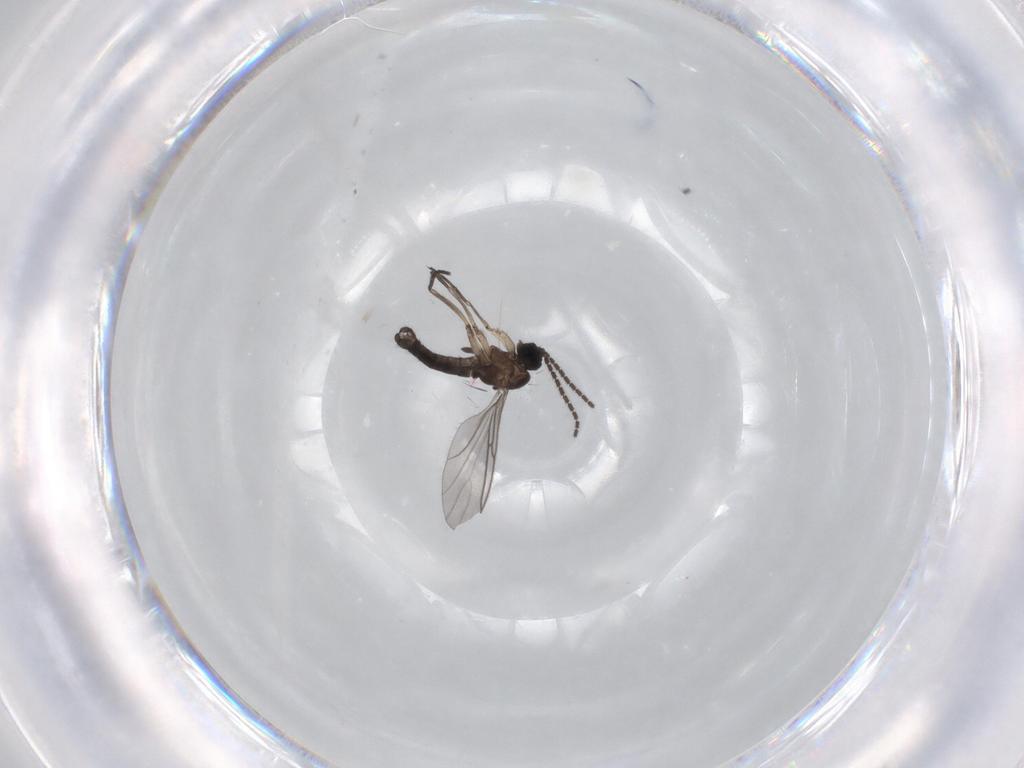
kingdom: Animalia
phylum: Arthropoda
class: Insecta
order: Diptera
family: Sciaridae
